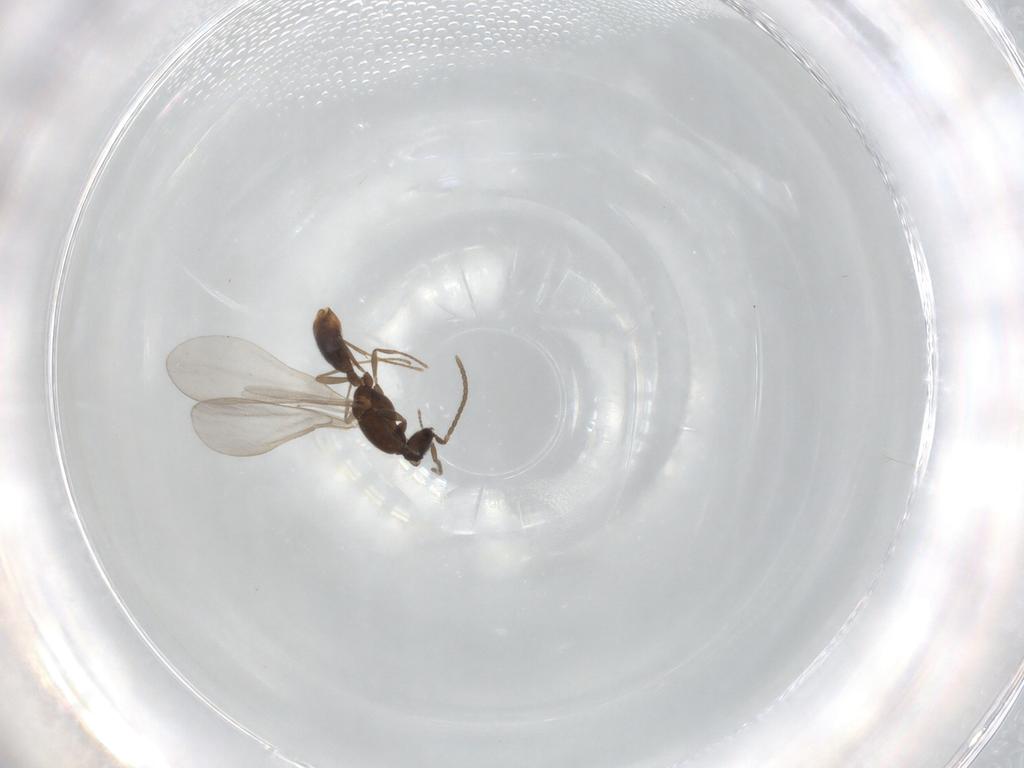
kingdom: Animalia
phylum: Arthropoda
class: Insecta
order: Hymenoptera
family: Formicidae
